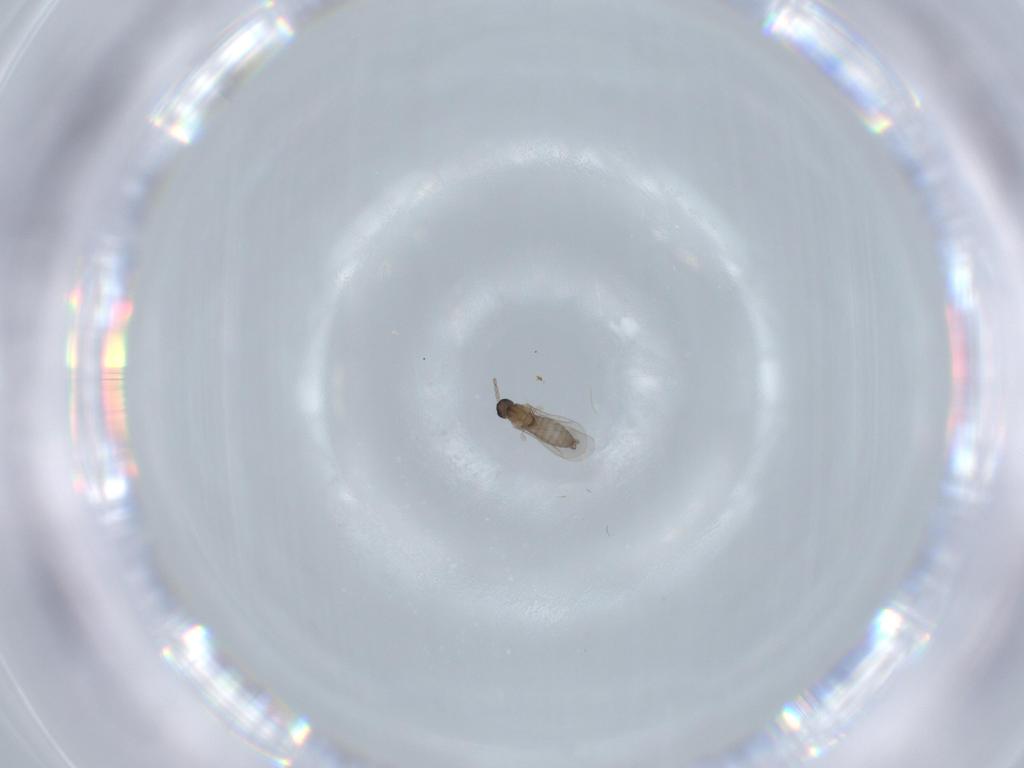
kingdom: Animalia
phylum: Arthropoda
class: Insecta
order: Diptera
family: Cecidomyiidae
